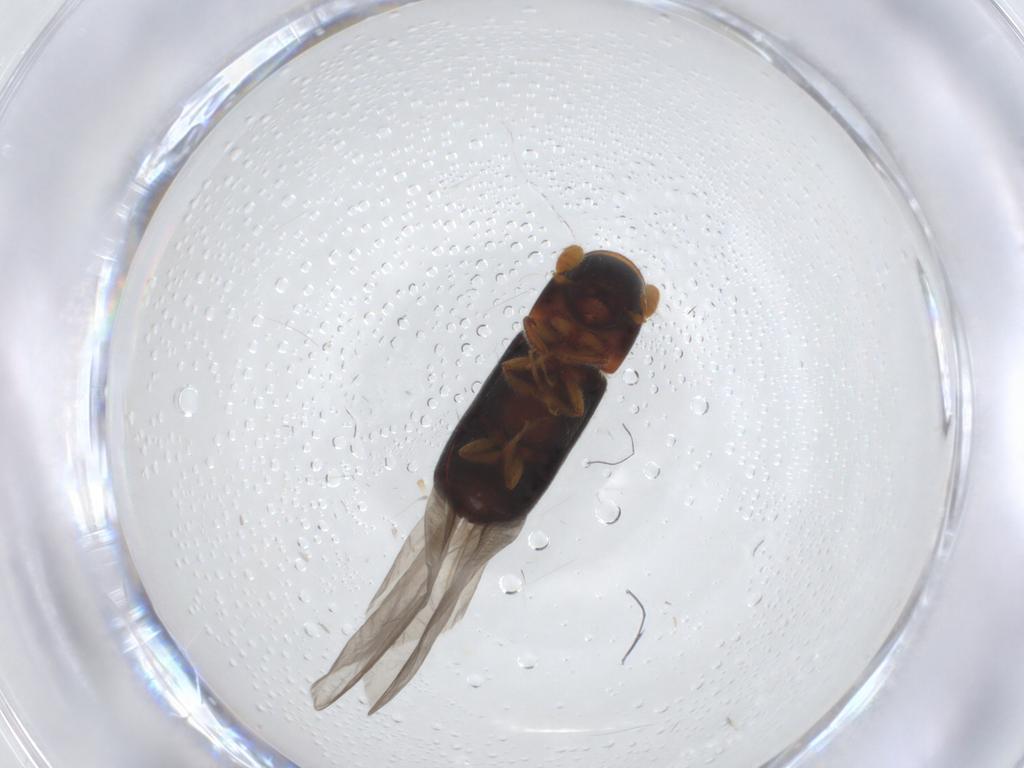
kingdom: Animalia
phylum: Arthropoda
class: Insecta
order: Coleoptera
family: Curculionidae
